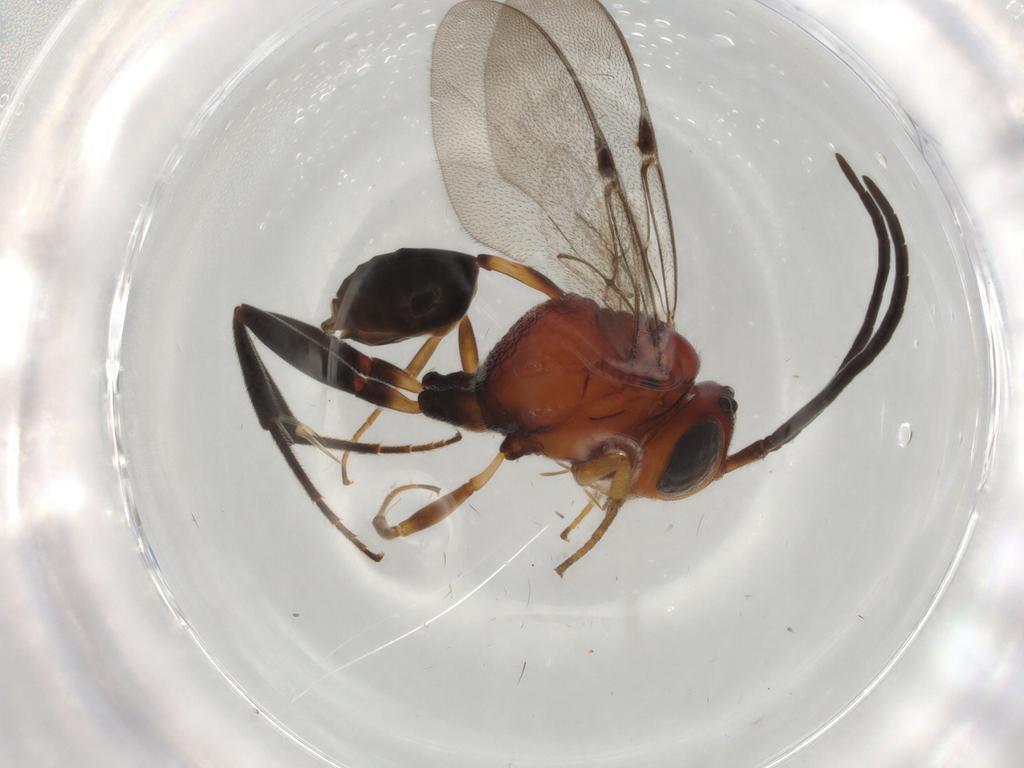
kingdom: Animalia
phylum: Arthropoda
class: Insecta
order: Hymenoptera
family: Evaniidae
